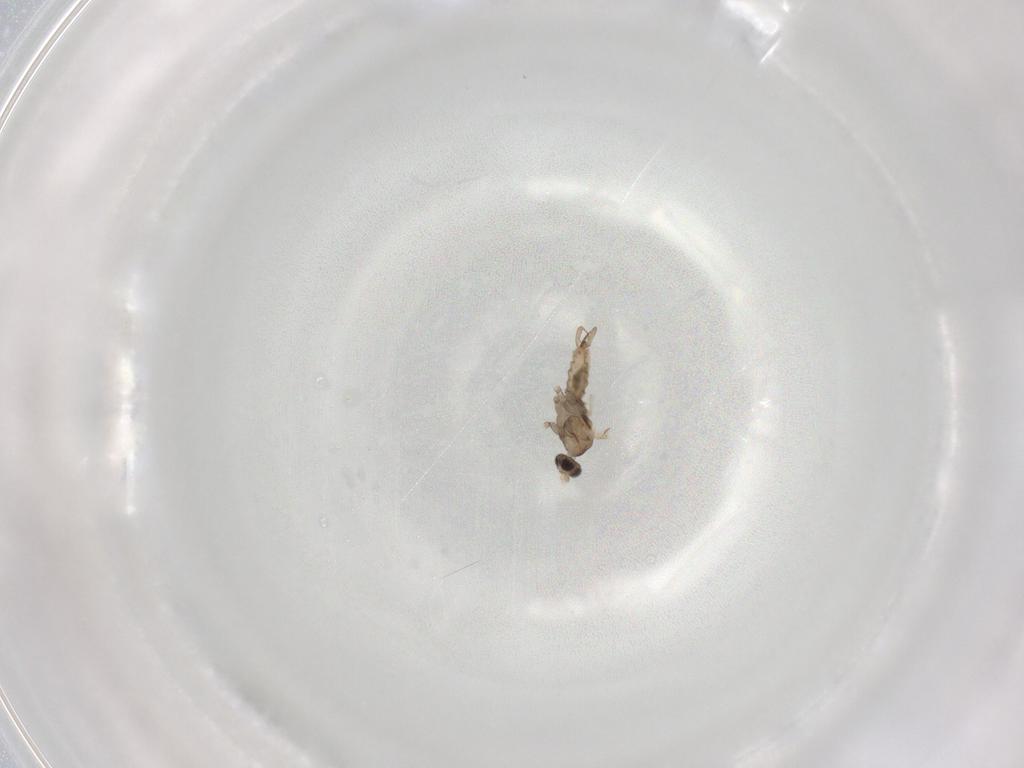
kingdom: Animalia
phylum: Arthropoda
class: Insecta
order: Diptera
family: Cecidomyiidae
